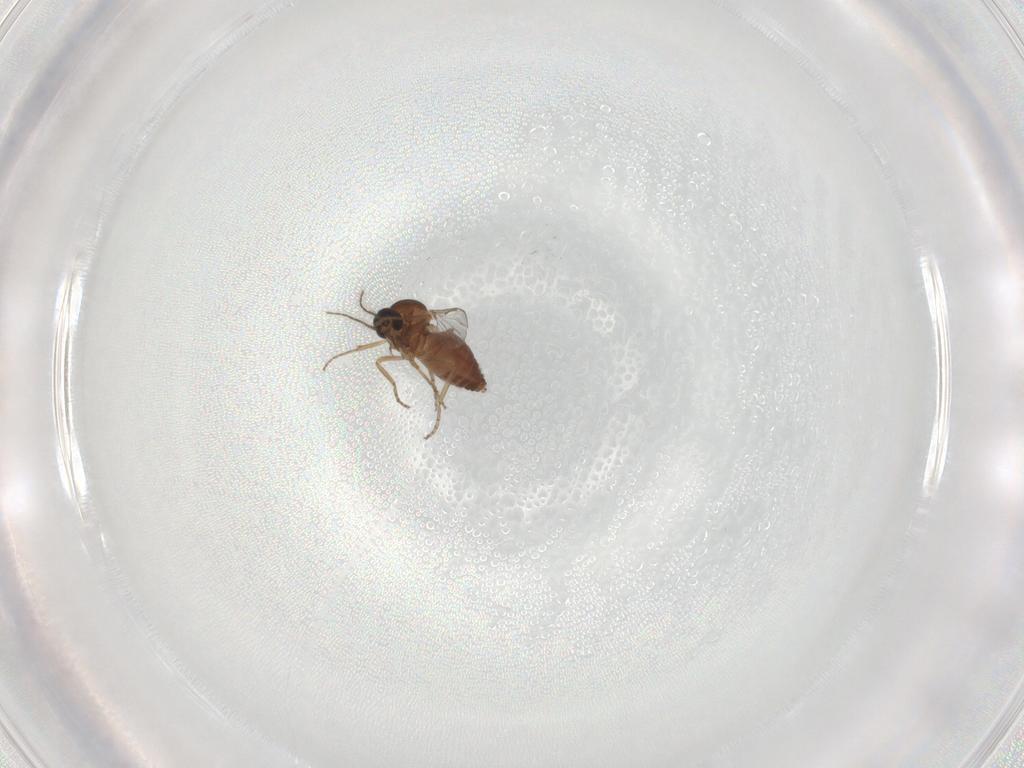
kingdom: Animalia
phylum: Arthropoda
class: Insecta
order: Diptera
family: Ceratopogonidae
